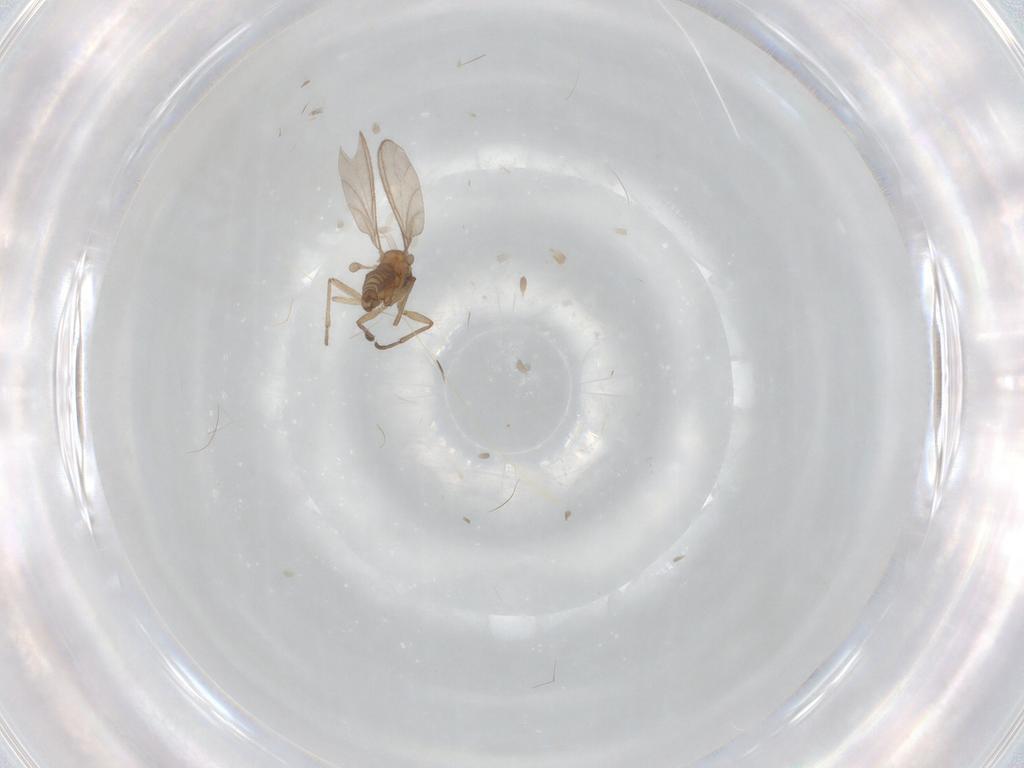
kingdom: Animalia
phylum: Arthropoda
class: Insecta
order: Diptera
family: Sciaridae
